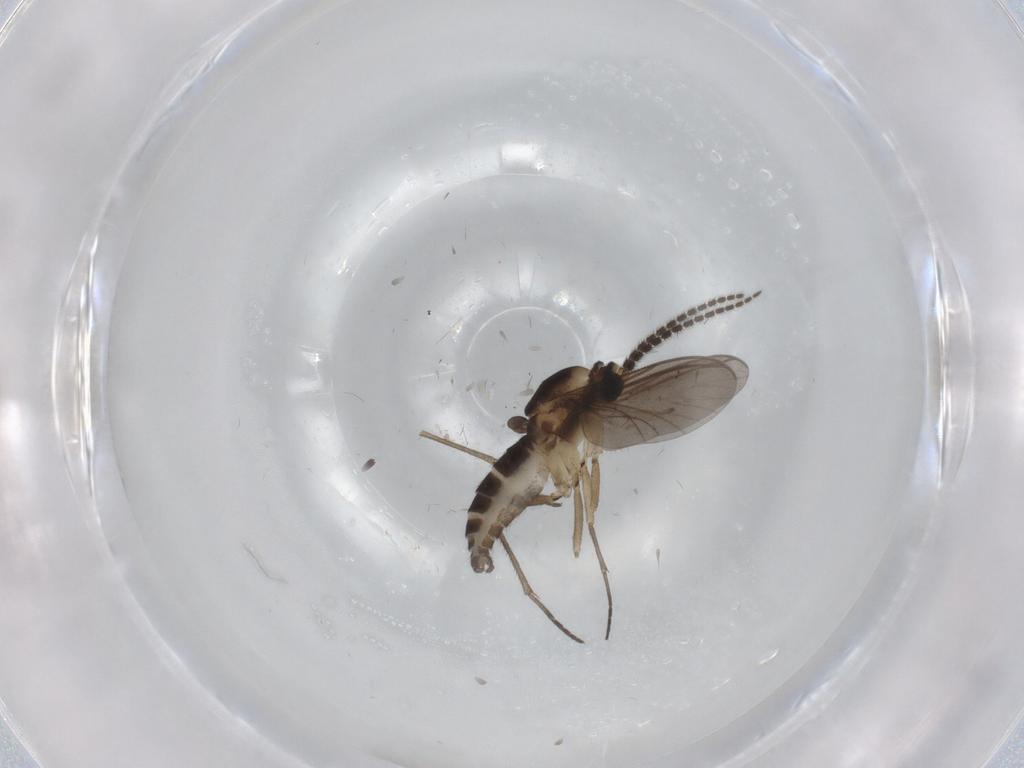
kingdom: Animalia
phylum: Arthropoda
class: Insecta
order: Diptera
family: Sciaridae
